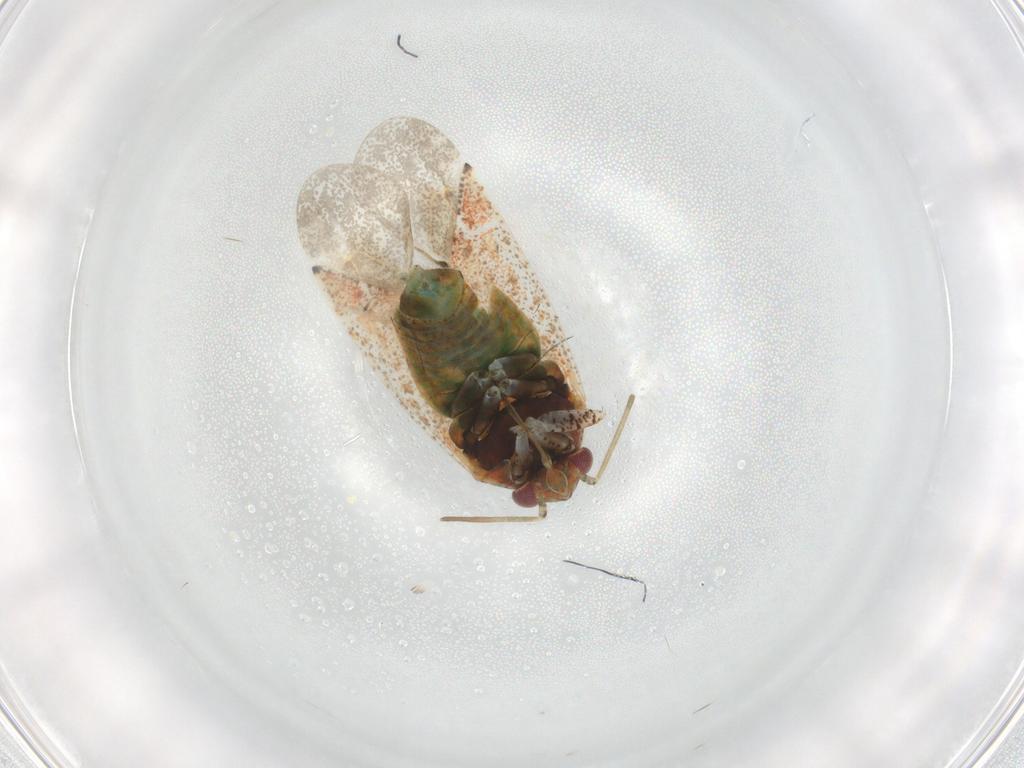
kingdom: Animalia
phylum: Arthropoda
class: Insecta
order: Hemiptera
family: Miridae
